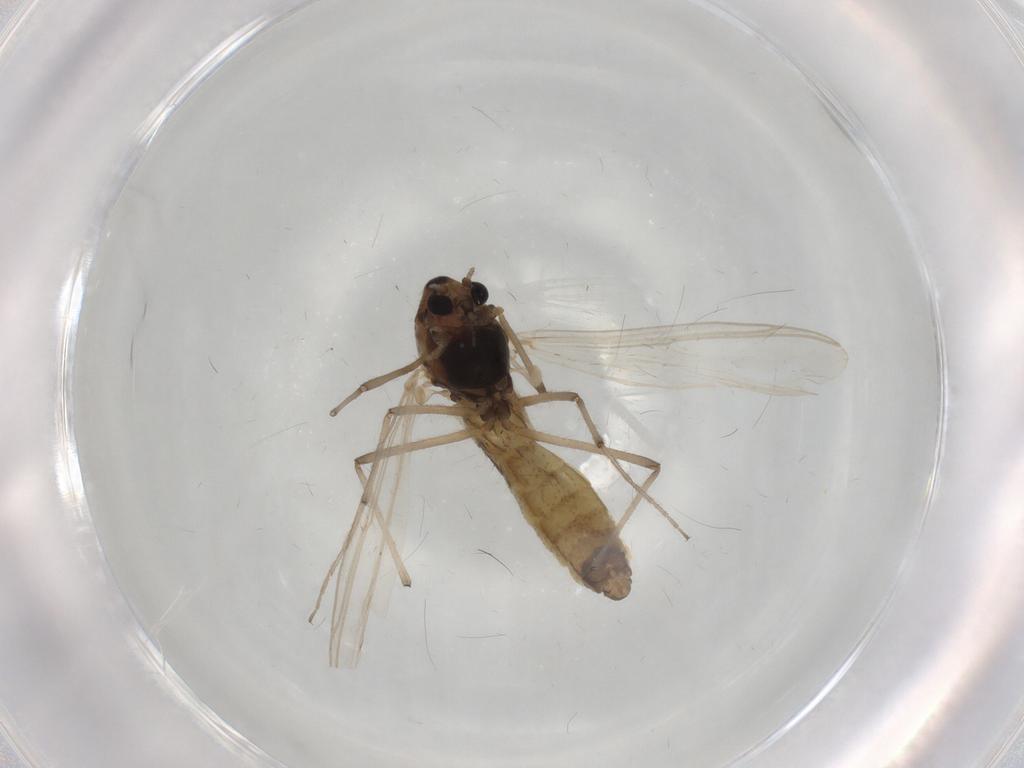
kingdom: Animalia
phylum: Arthropoda
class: Insecta
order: Diptera
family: Chironomidae
